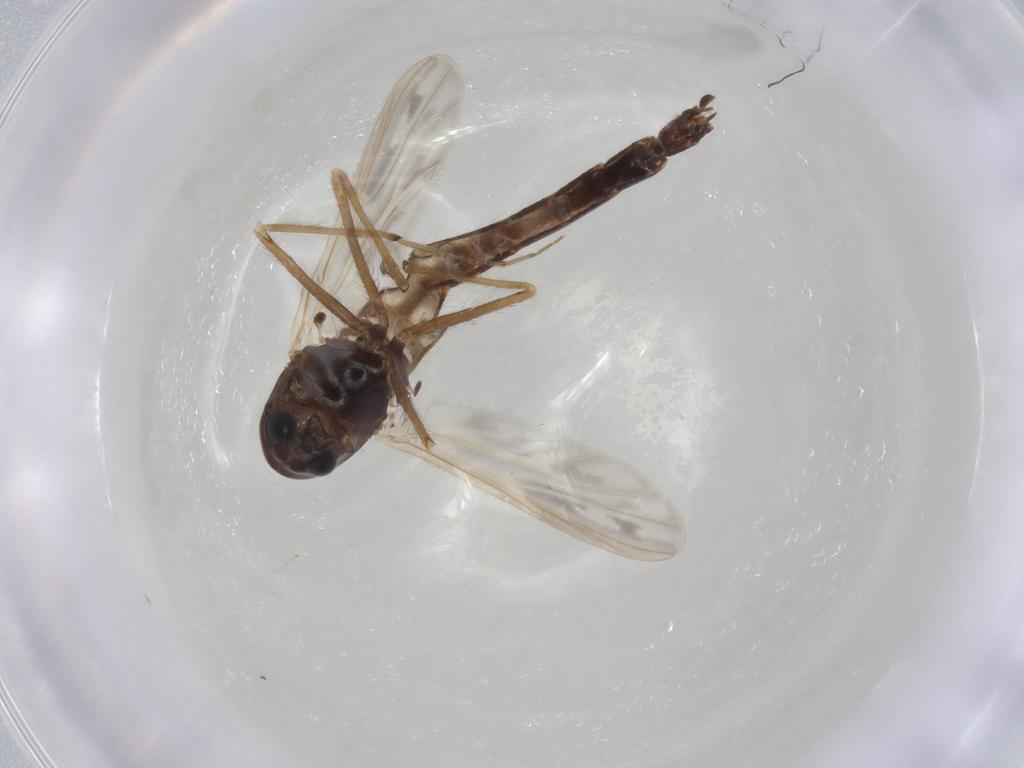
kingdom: Animalia
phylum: Arthropoda
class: Insecta
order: Diptera
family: Chironomidae
